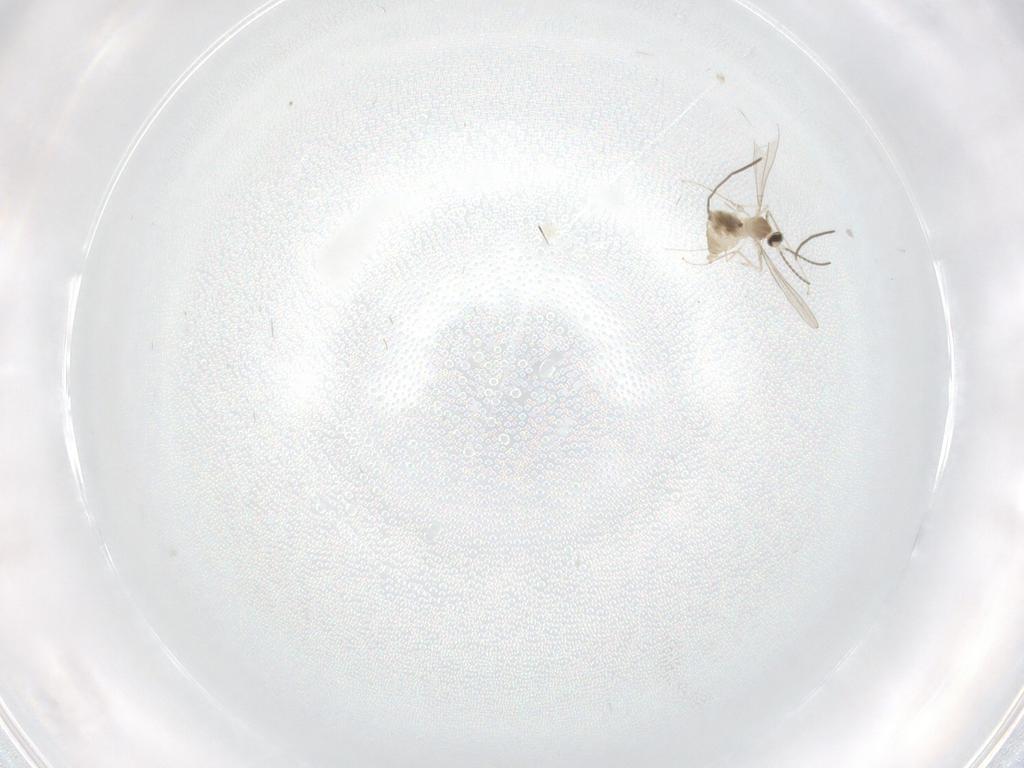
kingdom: Animalia
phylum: Arthropoda
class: Insecta
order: Diptera
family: Chironomidae
